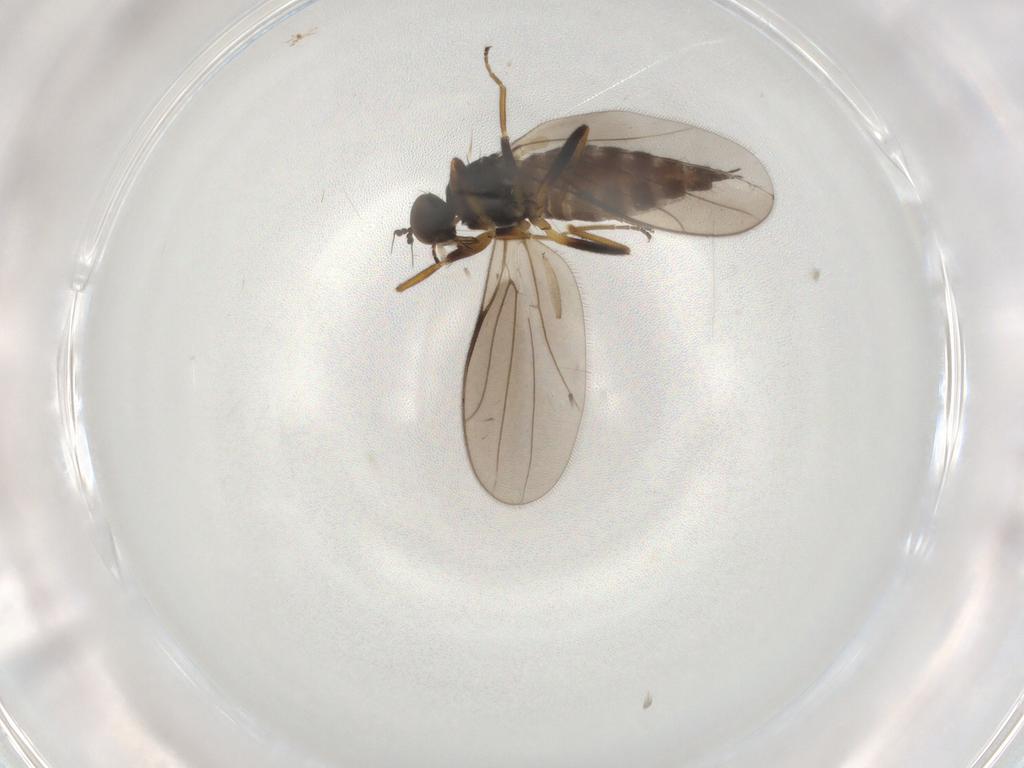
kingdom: Animalia
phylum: Arthropoda
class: Insecta
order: Diptera
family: Hybotidae
